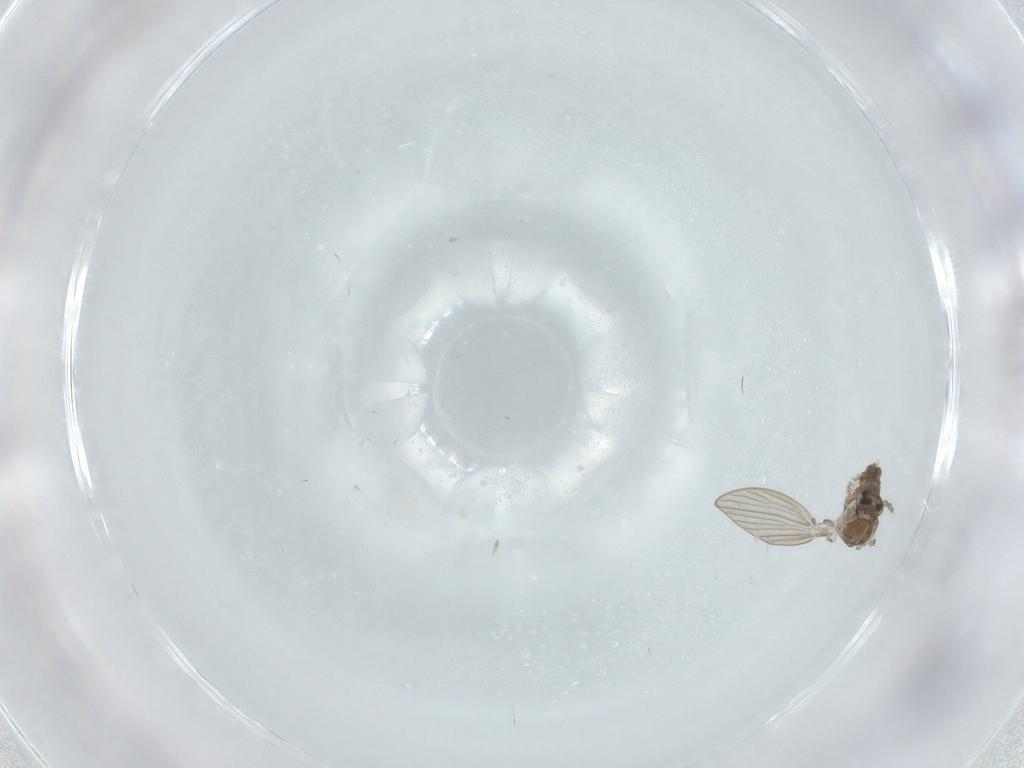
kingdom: Animalia
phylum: Arthropoda
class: Insecta
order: Diptera
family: Psychodidae
